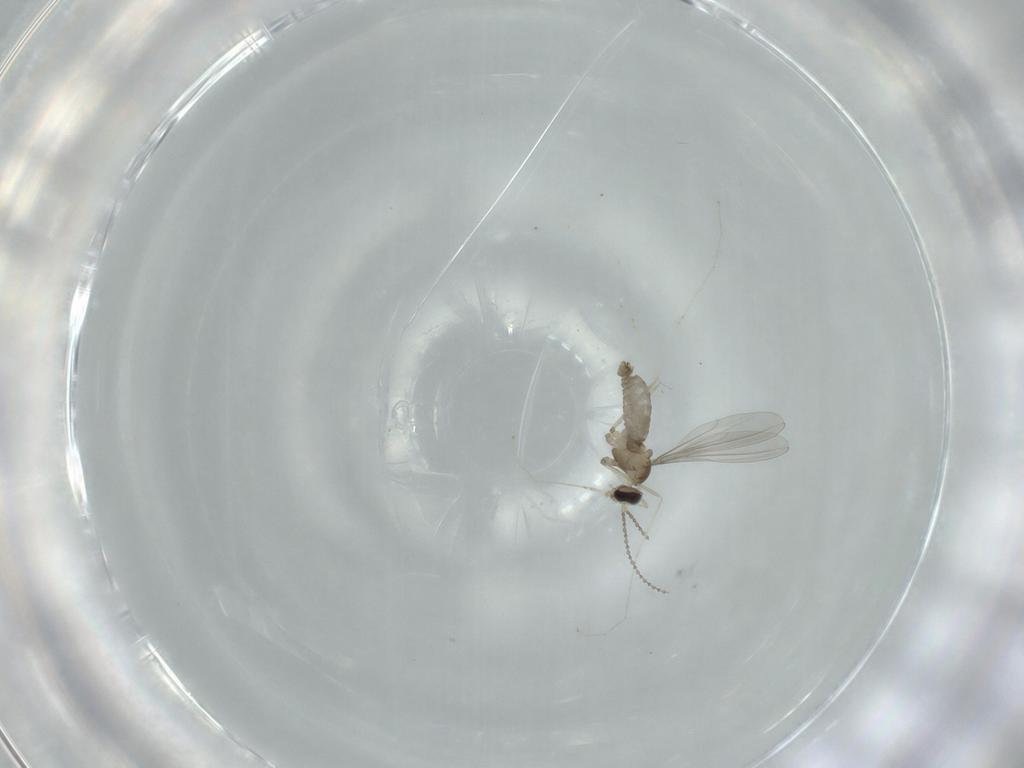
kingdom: Animalia
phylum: Arthropoda
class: Insecta
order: Diptera
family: Cecidomyiidae
